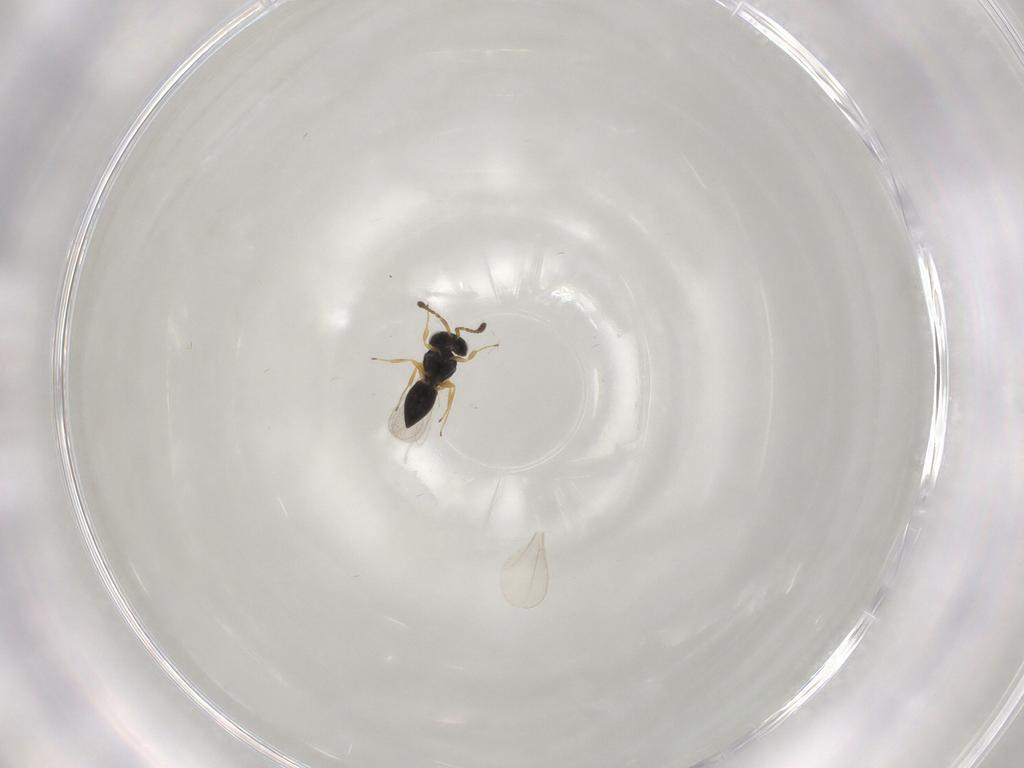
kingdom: Animalia
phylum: Arthropoda
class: Insecta
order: Hymenoptera
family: Scelionidae
